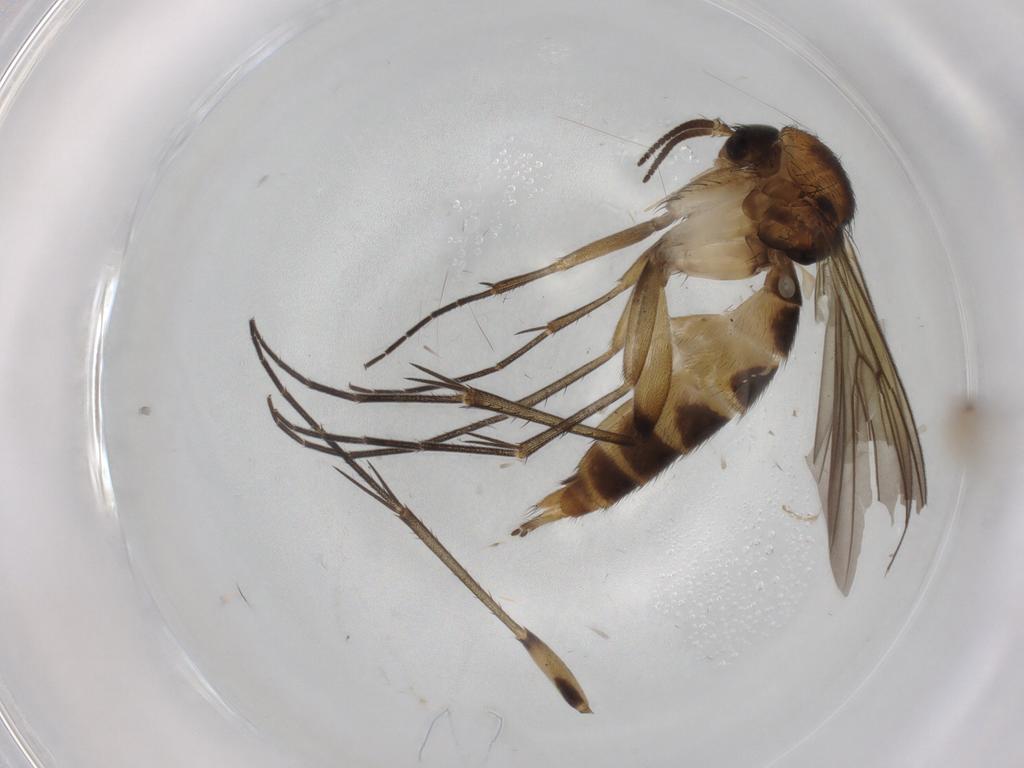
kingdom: Animalia
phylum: Arthropoda
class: Insecta
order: Diptera
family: Mycetophilidae
